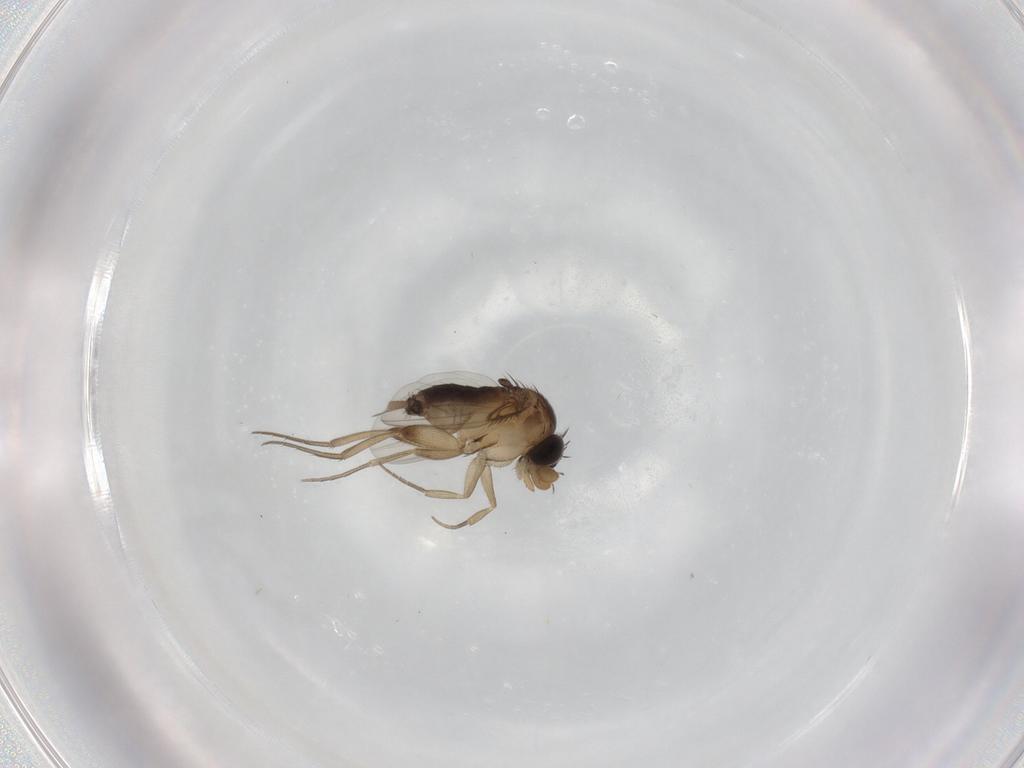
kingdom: Animalia
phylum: Arthropoda
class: Insecta
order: Diptera
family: Phoridae
